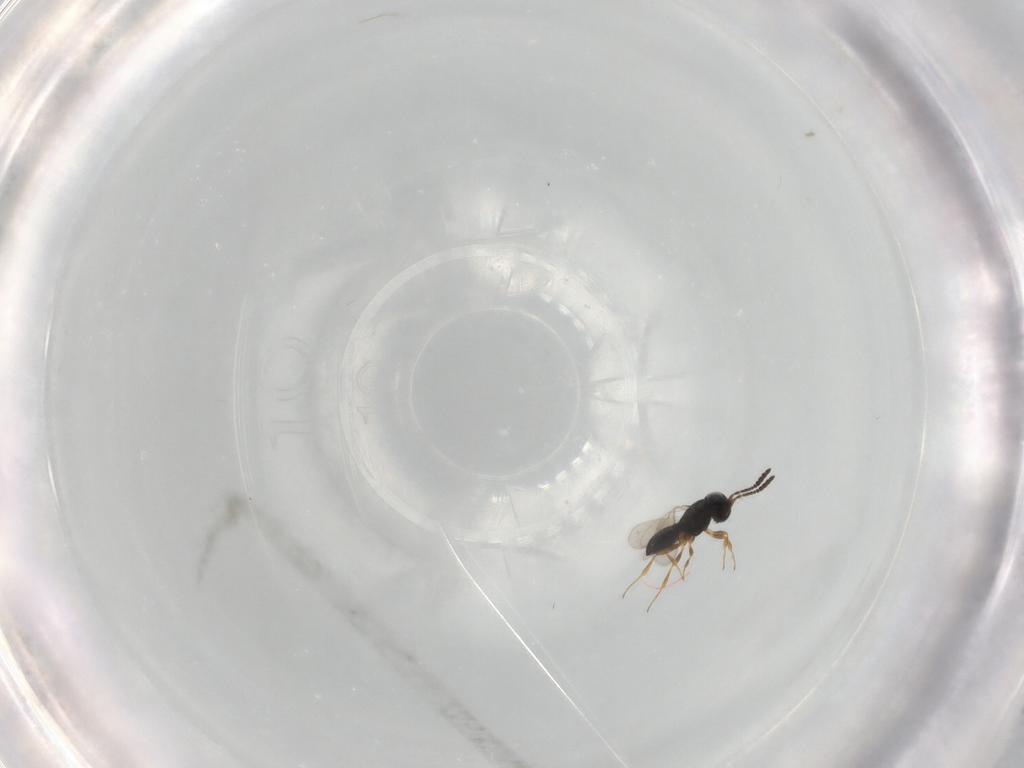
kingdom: Animalia
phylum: Arthropoda
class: Insecta
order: Hymenoptera
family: Scelionidae
